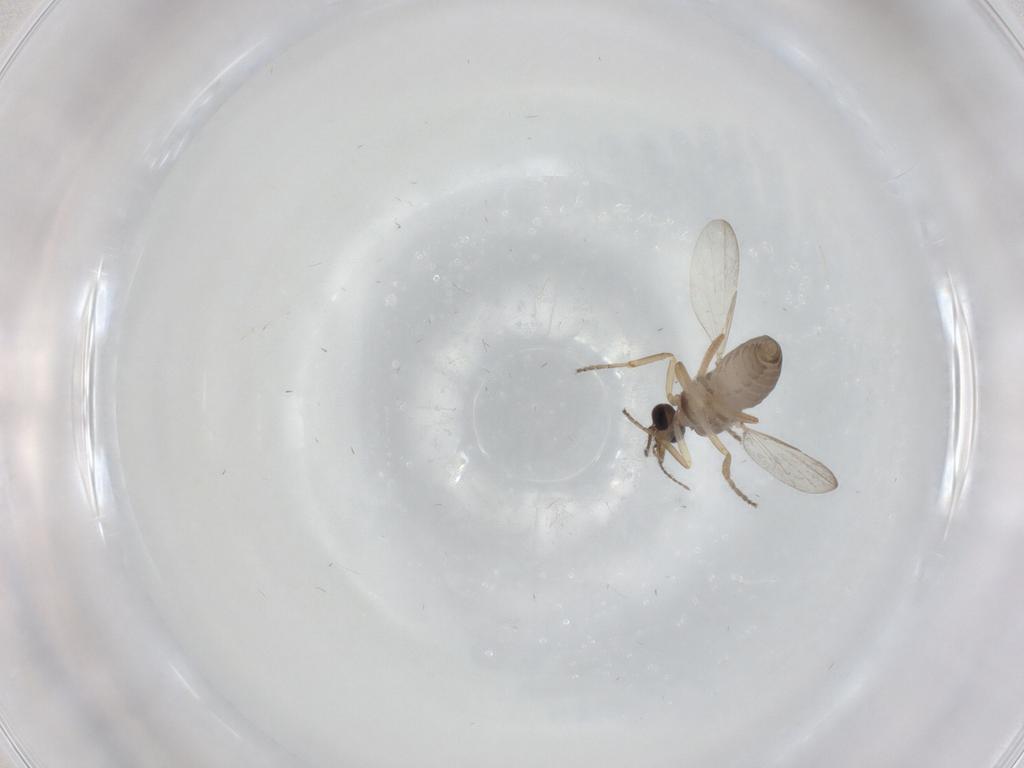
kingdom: Animalia
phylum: Arthropoda
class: Insecta
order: Diptera
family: Ceratopogonidae
